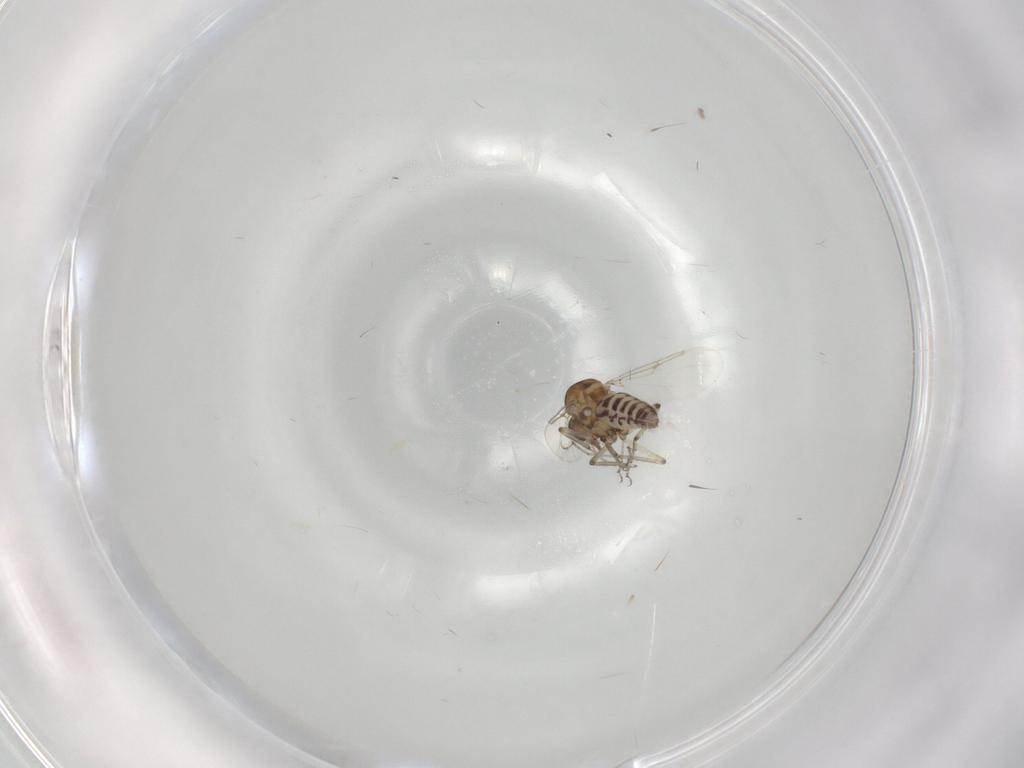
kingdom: Animalia
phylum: Arthropoda
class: Insecta
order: Diptera
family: Ceratopogonidae
